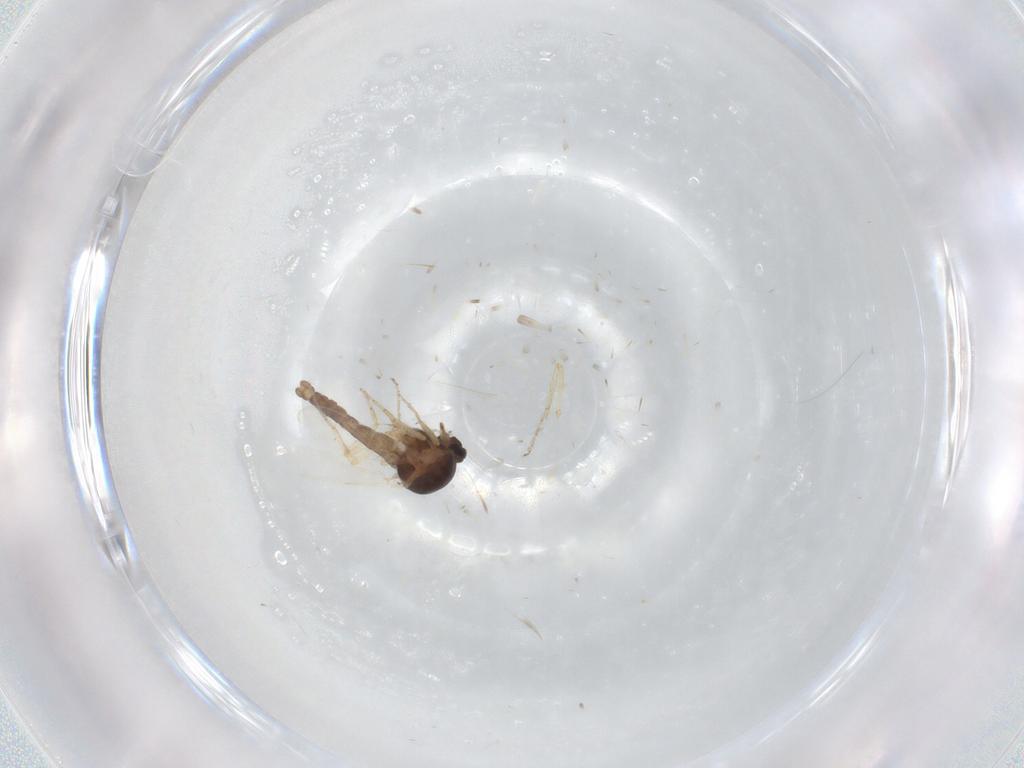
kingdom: Animalia
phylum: Arthropoda
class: Insecta
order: Diptera
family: Ceratopogonidae
